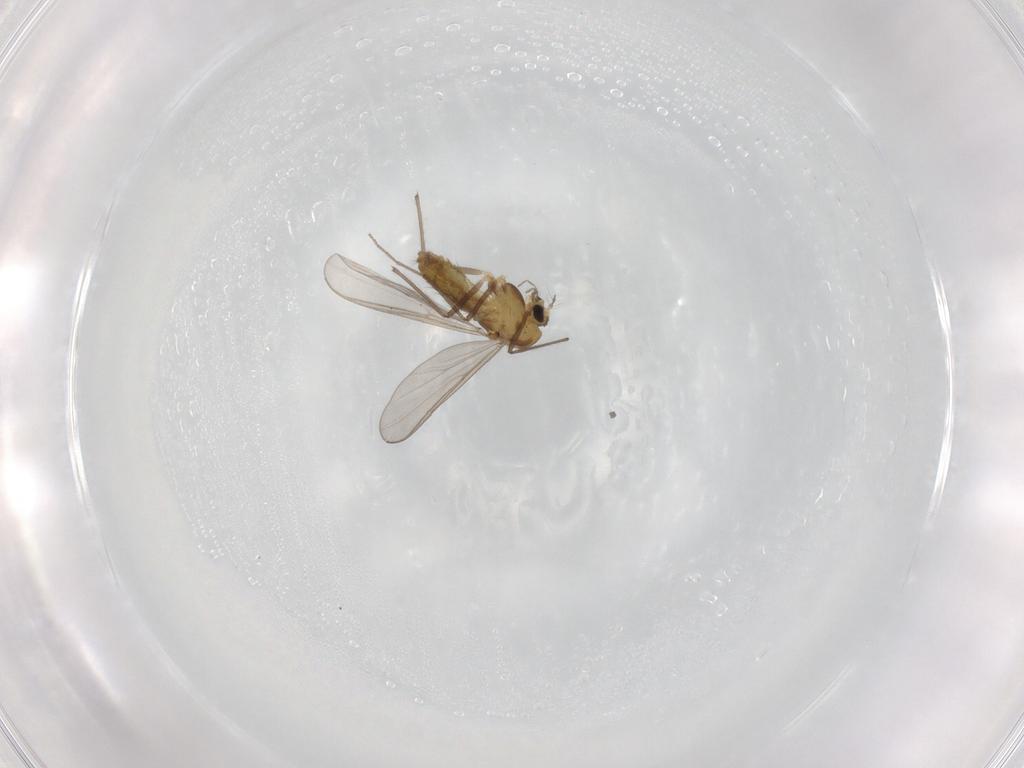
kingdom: Animalia
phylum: Arthropoda
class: Insecta
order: Diptera
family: Chironomidae
